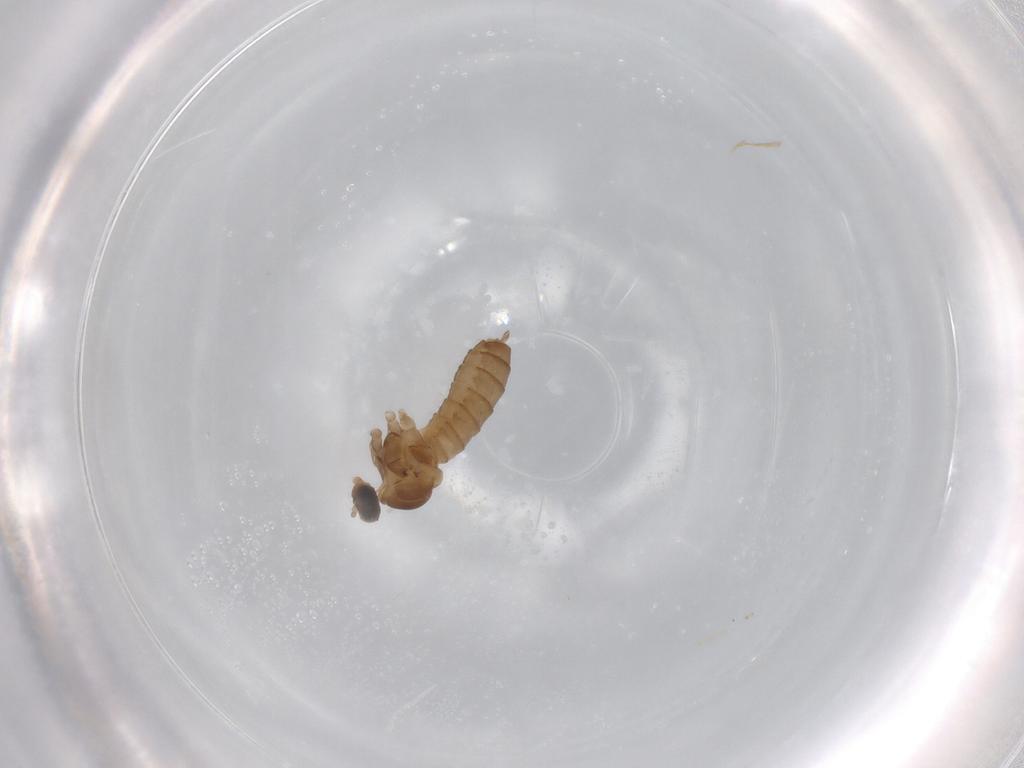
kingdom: Animalia
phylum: Arthropoda
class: Insecta
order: Diptera
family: Cecidomyiidae
